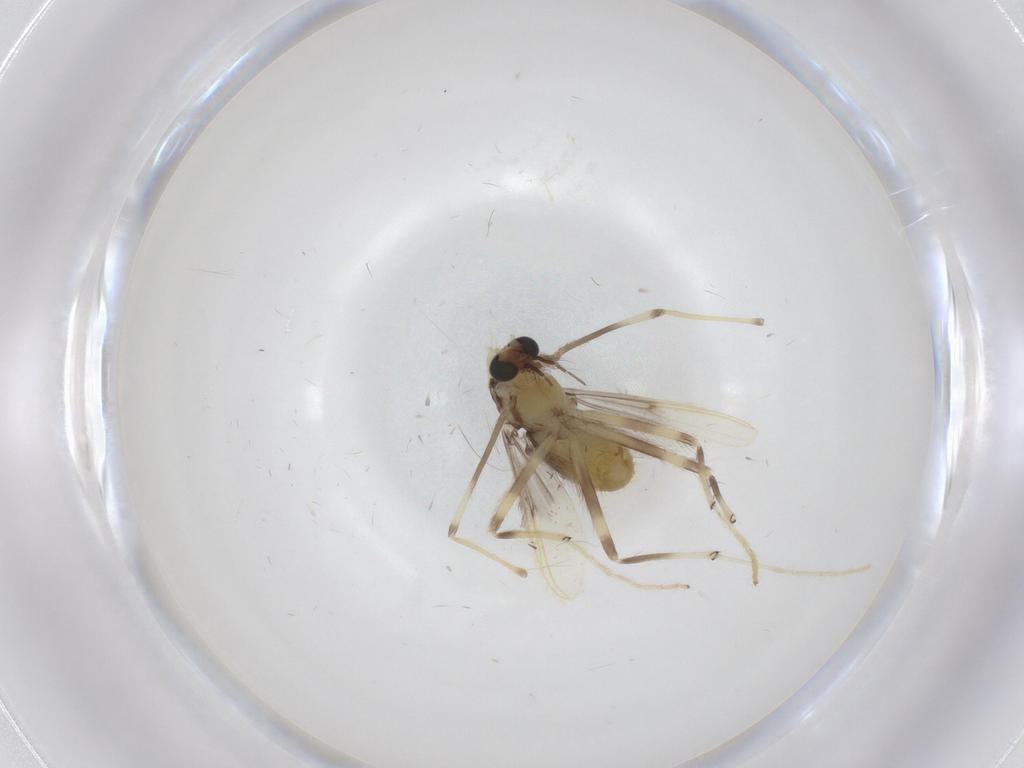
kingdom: Animalia
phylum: Arthropoda
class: Insecta
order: Diptera
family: Chironomidae
